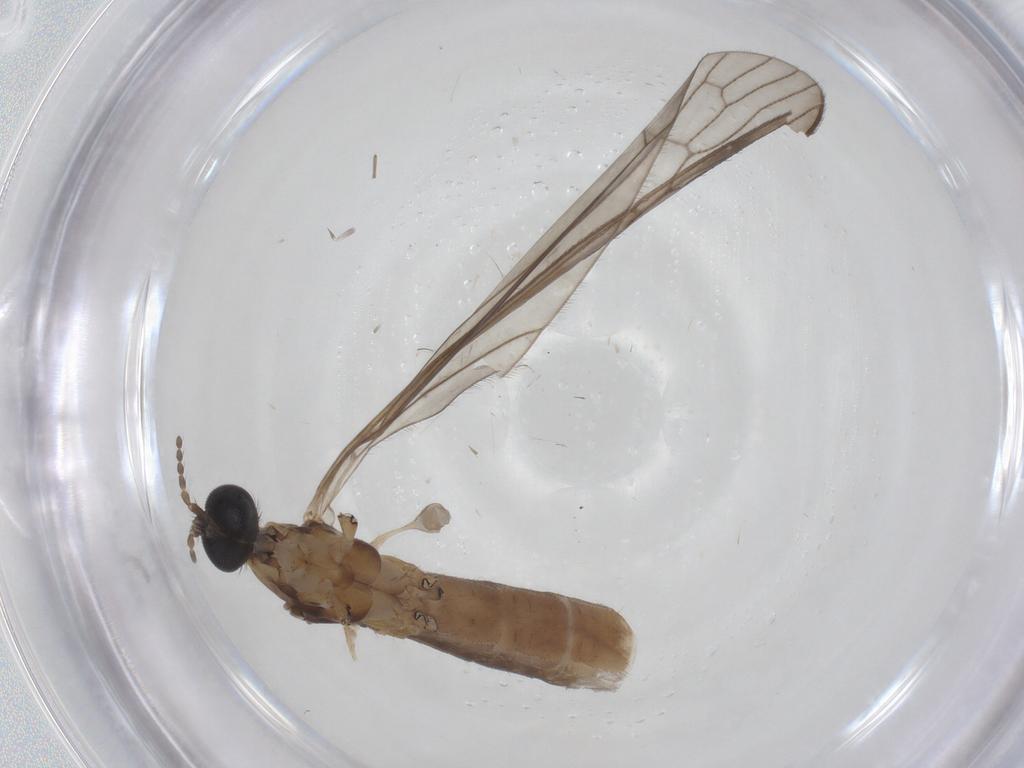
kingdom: Animalia
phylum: Arthropoda
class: Insecta
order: Diptera
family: Limoniidae
